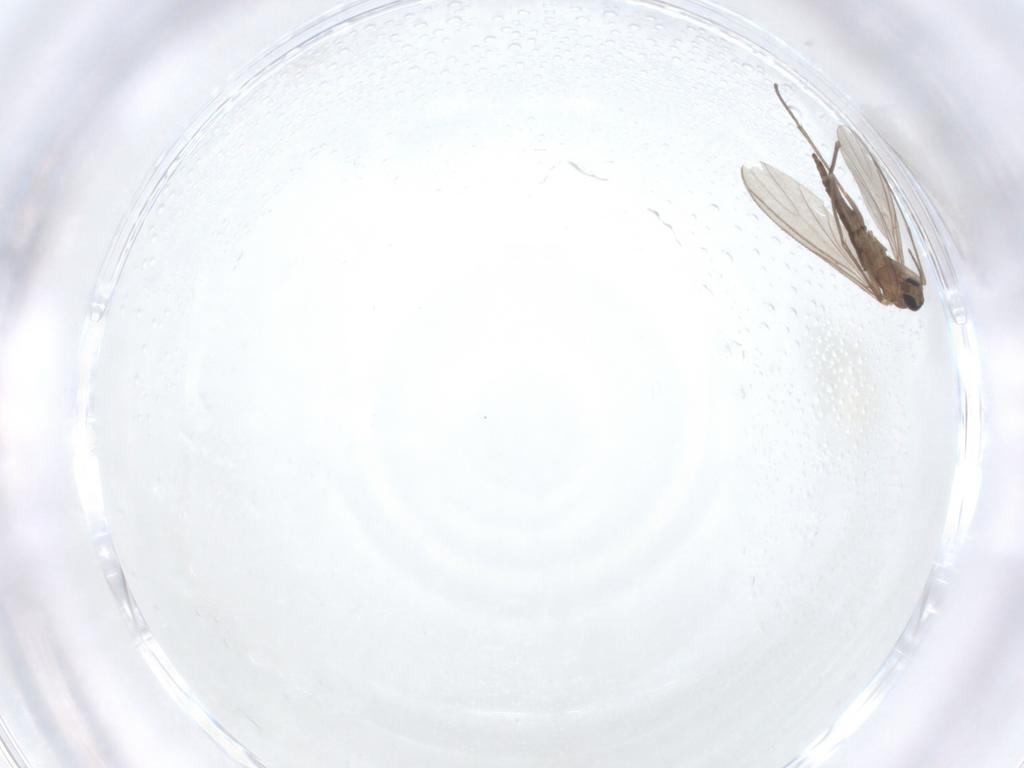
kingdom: Animalia
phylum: Arthropoda
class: Insecta
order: Diptera
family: Sciaridae
